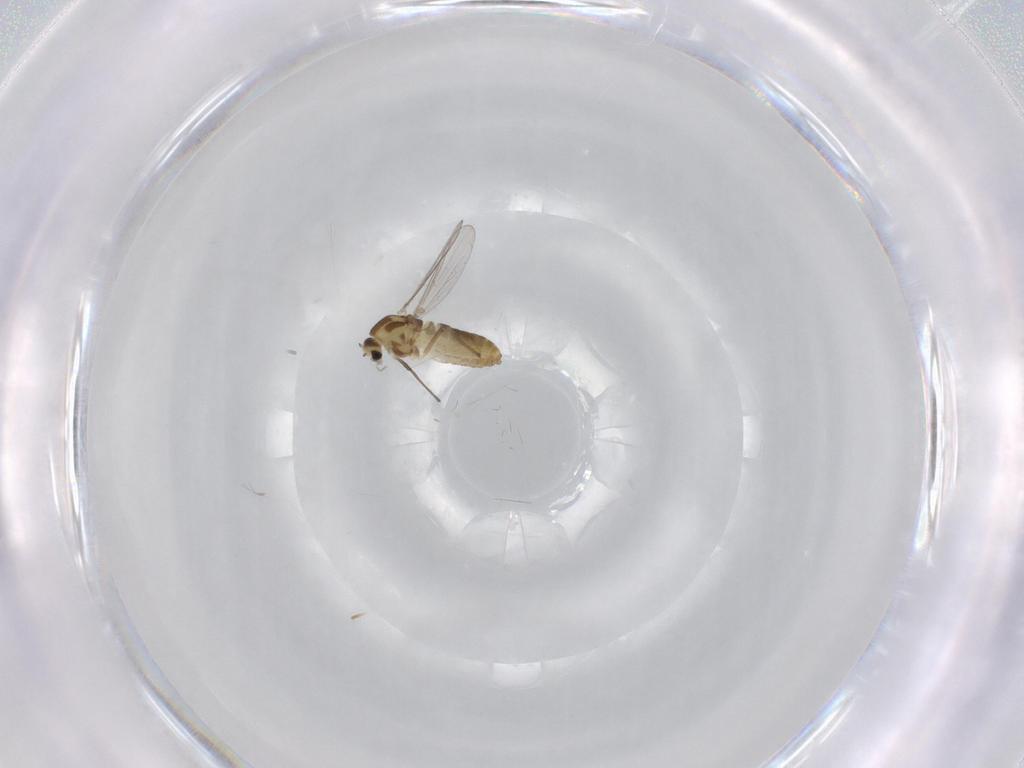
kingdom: Animalia
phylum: Arthropoda
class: Insecta
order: Diptera
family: Chironomidae
